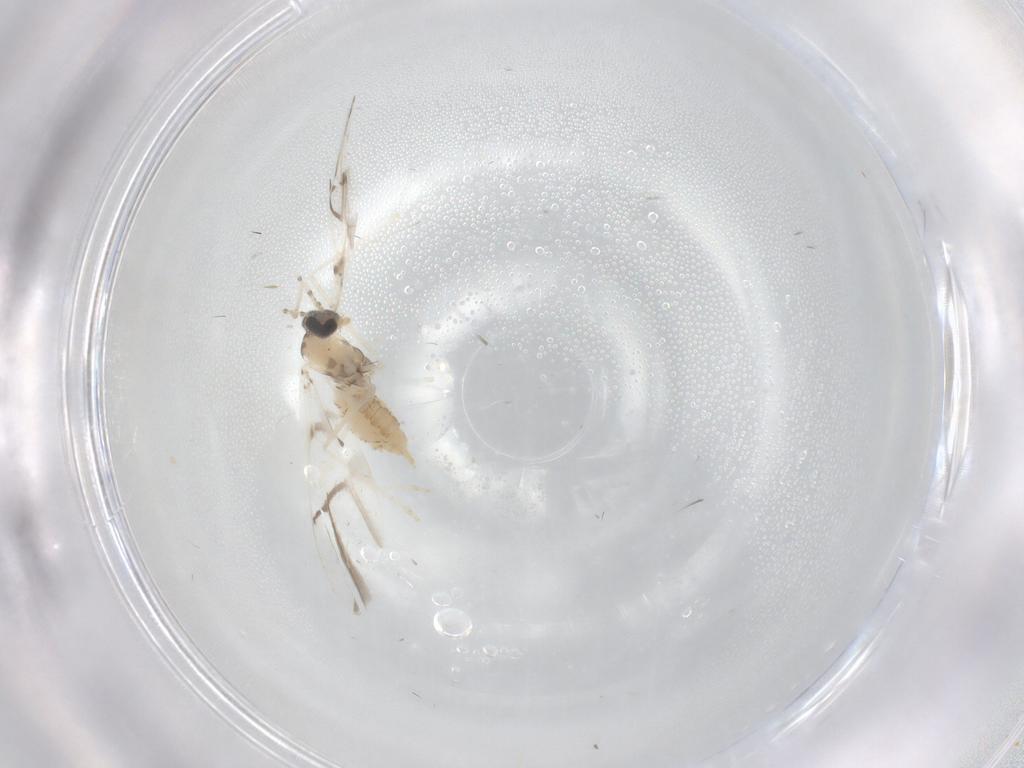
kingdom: Animalia
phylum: Arthropoda
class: Insecta
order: Diptera
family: Cecidomyiidae
